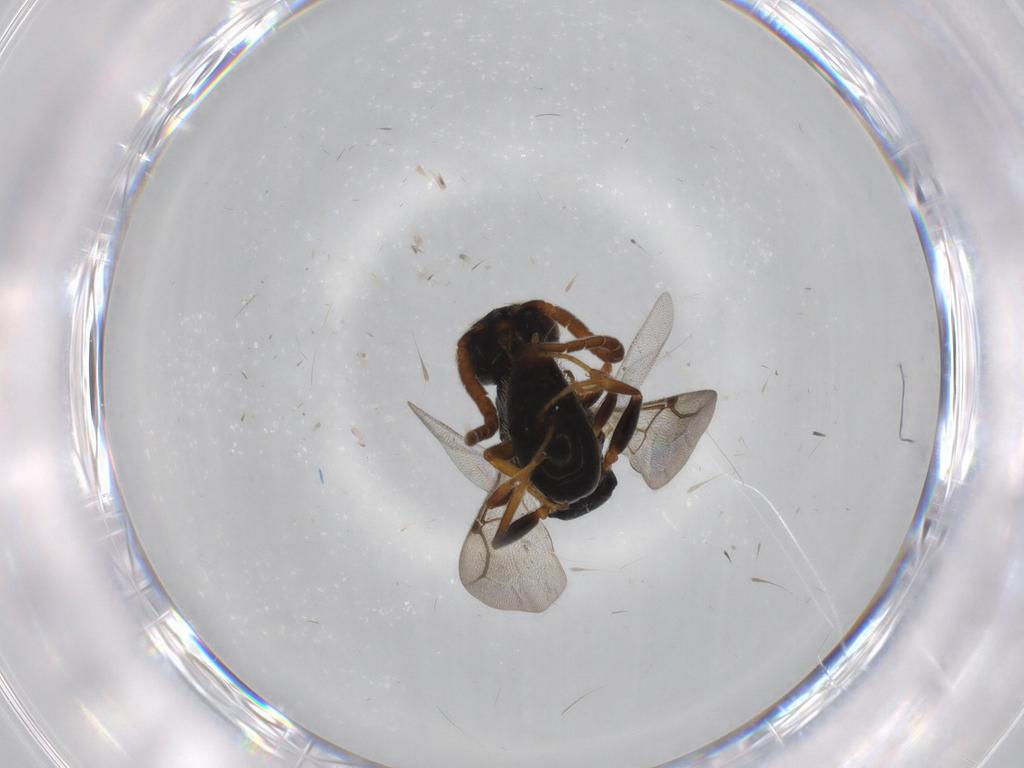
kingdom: Animalia
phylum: Arthropoda
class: Insecta
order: Hymenoptera
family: Bethylidae
